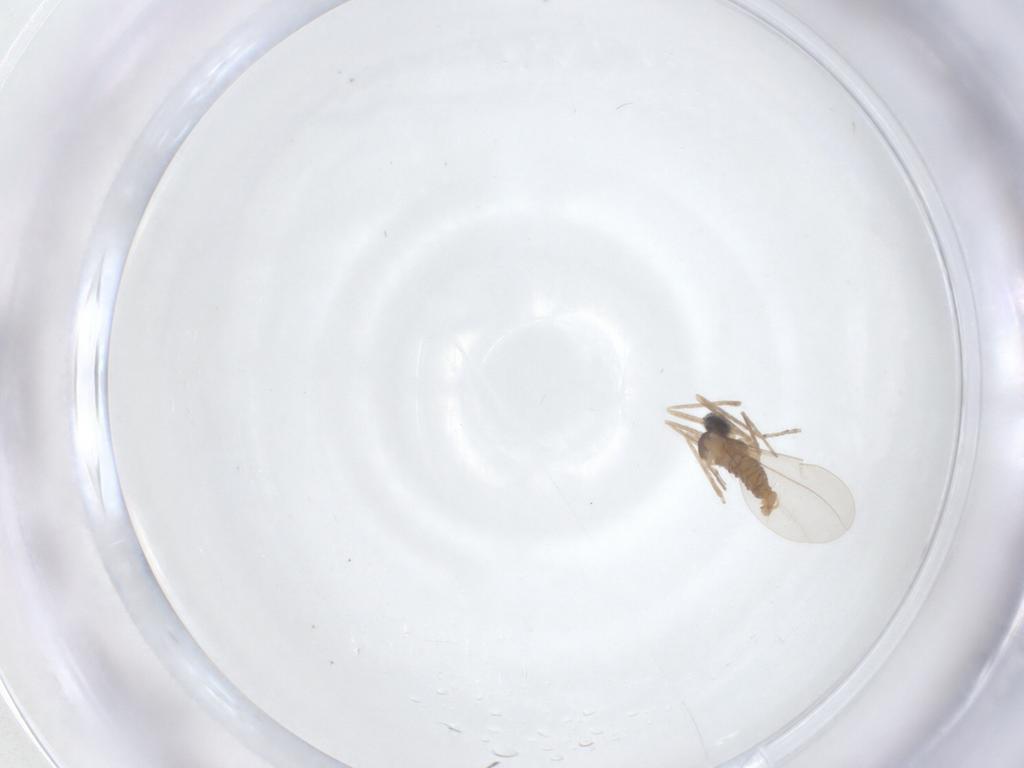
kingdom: Animalia
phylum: Arthropoda
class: Insecta
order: Diptera
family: Cecidomyiidae
